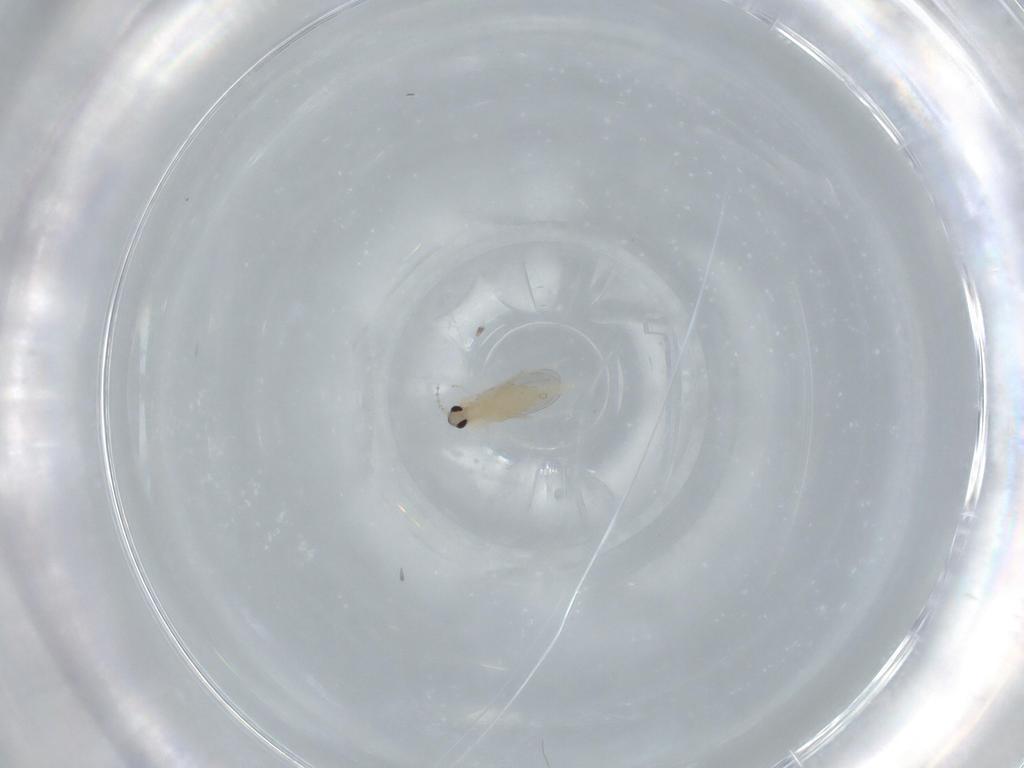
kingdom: Animalia
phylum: Arthropoda
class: Insecta
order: Diptera
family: Cecidomyiidae
